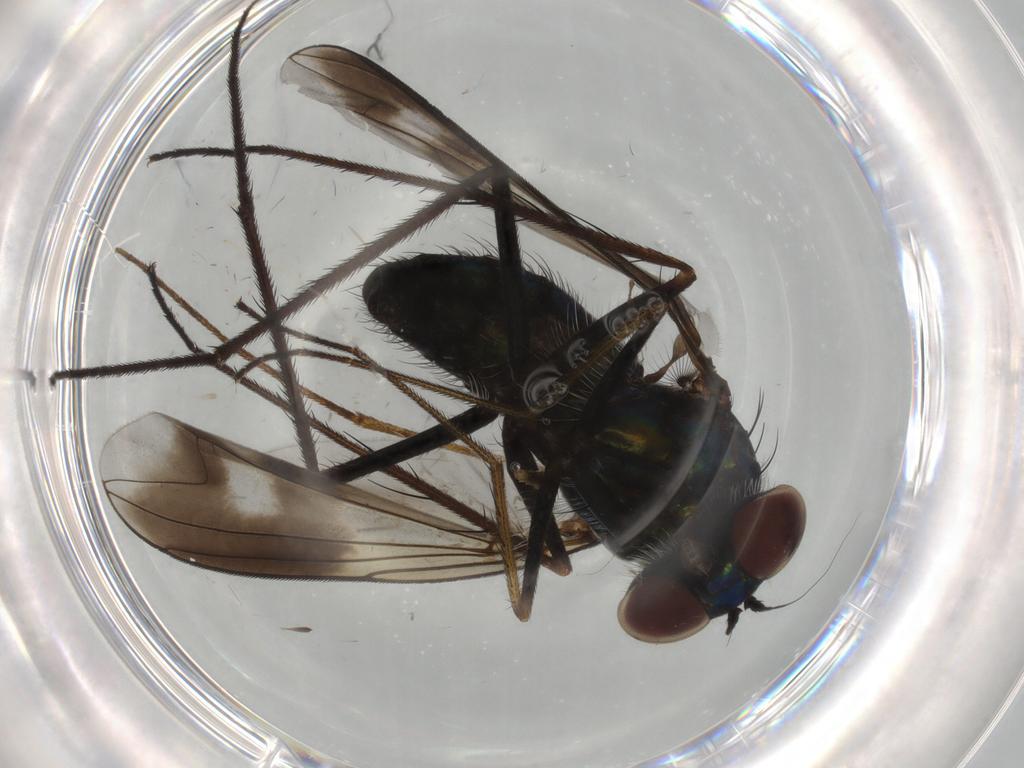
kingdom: Animalia
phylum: Arthropoda
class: Insecta
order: Diptera
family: Dolichopodidae
